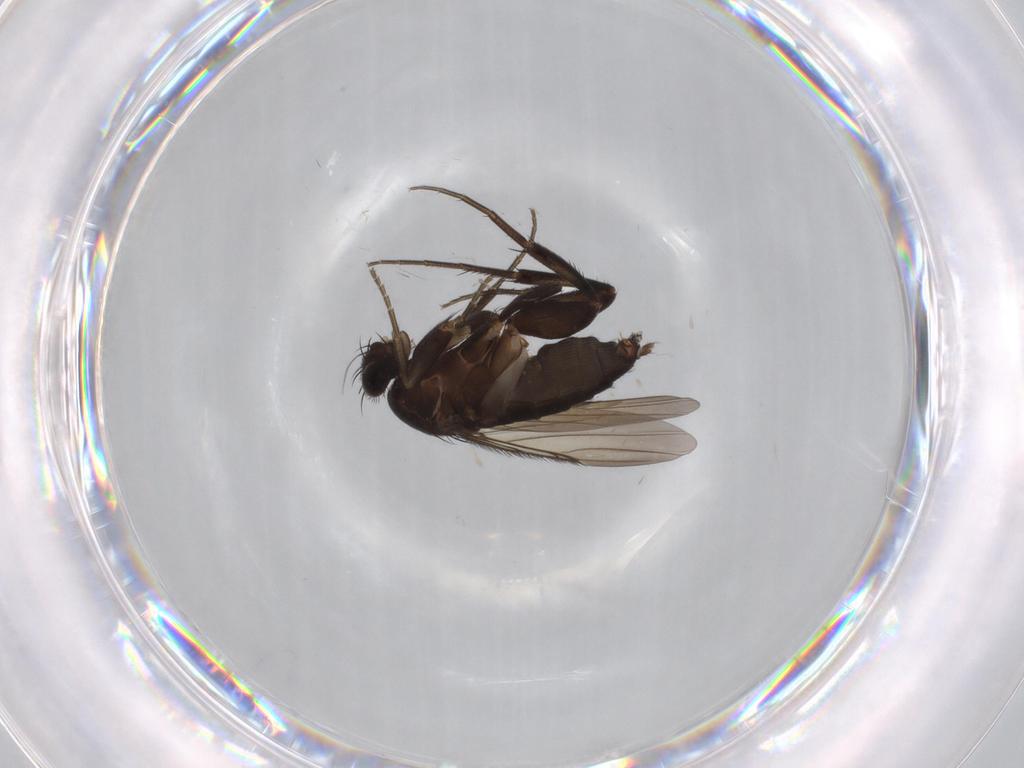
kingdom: Animalia
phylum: Arthropoda
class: Insecta
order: Diptera
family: Phoridae
